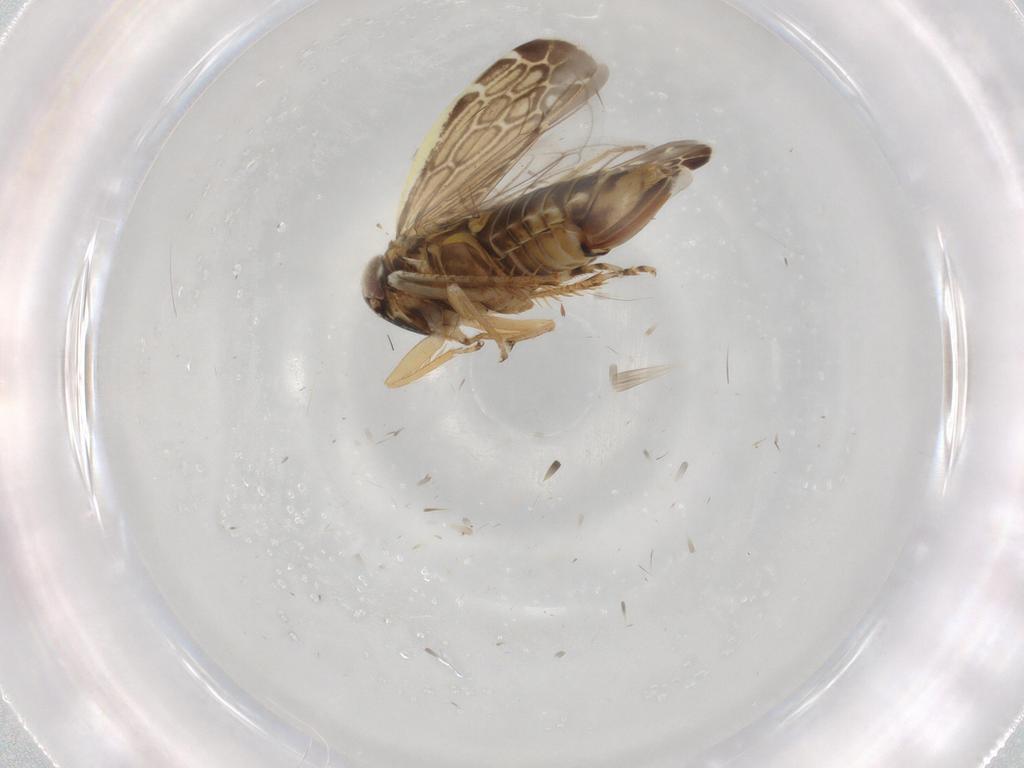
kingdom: Animalia
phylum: Arthropoda
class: Insecta
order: Hemiptera
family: Cicadellidae
